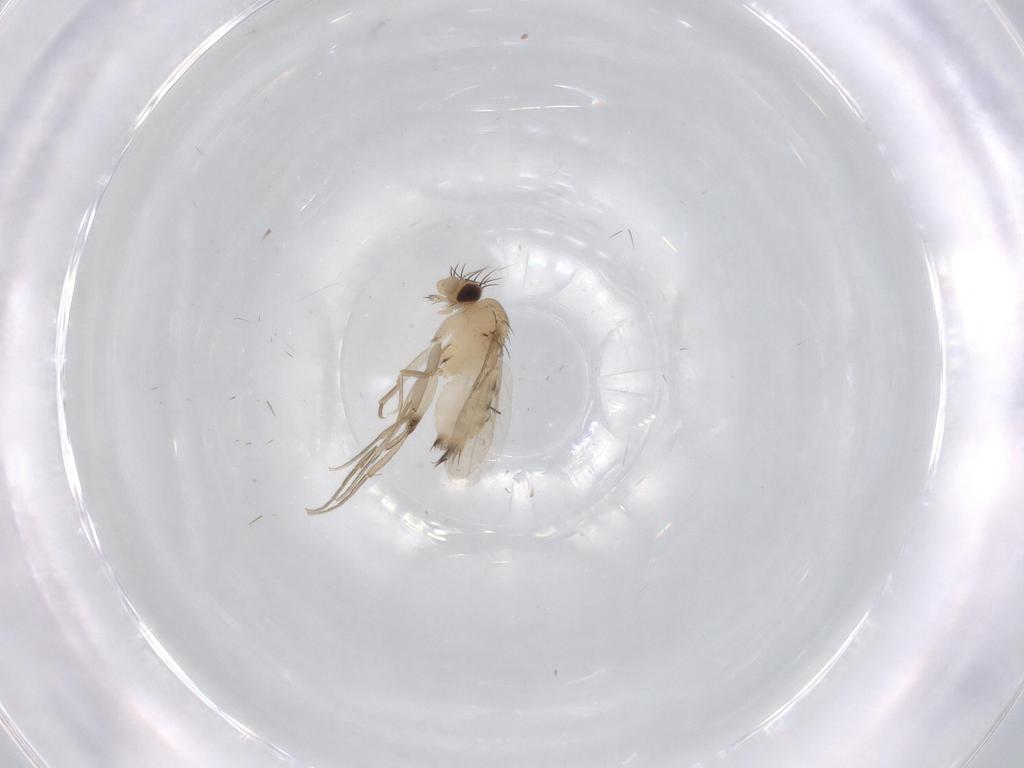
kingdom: Animalia
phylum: Arthropoda
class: Insecta
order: Diptera
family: Phoridae
